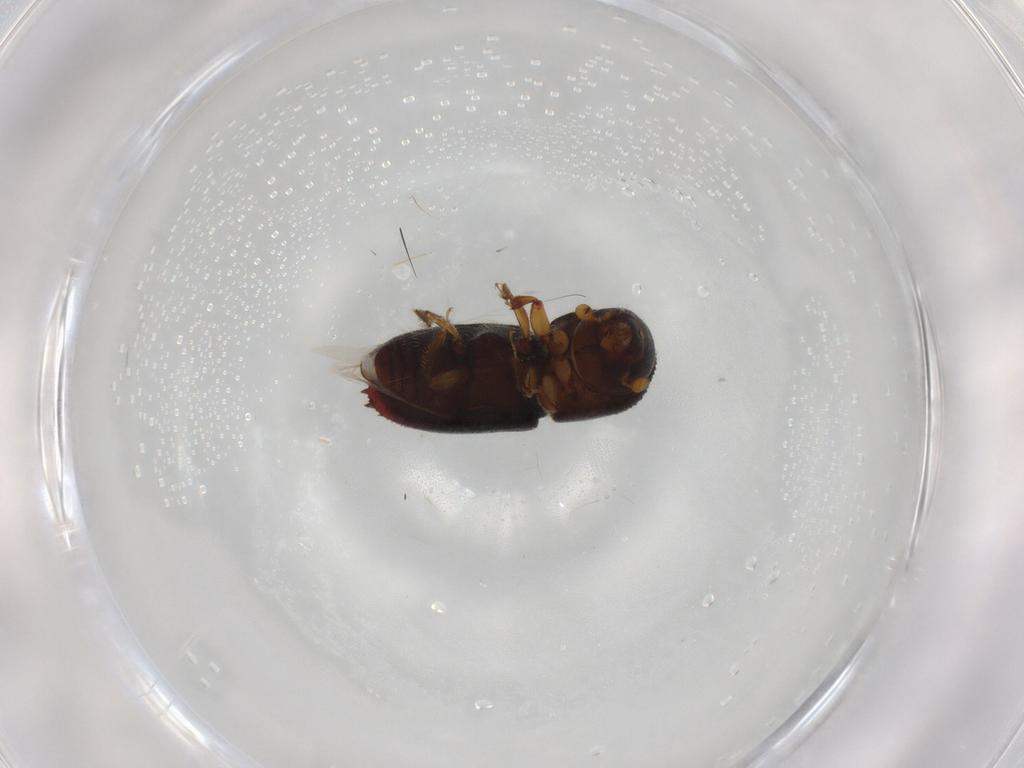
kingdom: Animalia
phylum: Arthropoda
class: Insecta
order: Coleoptera
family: Curculionidae
